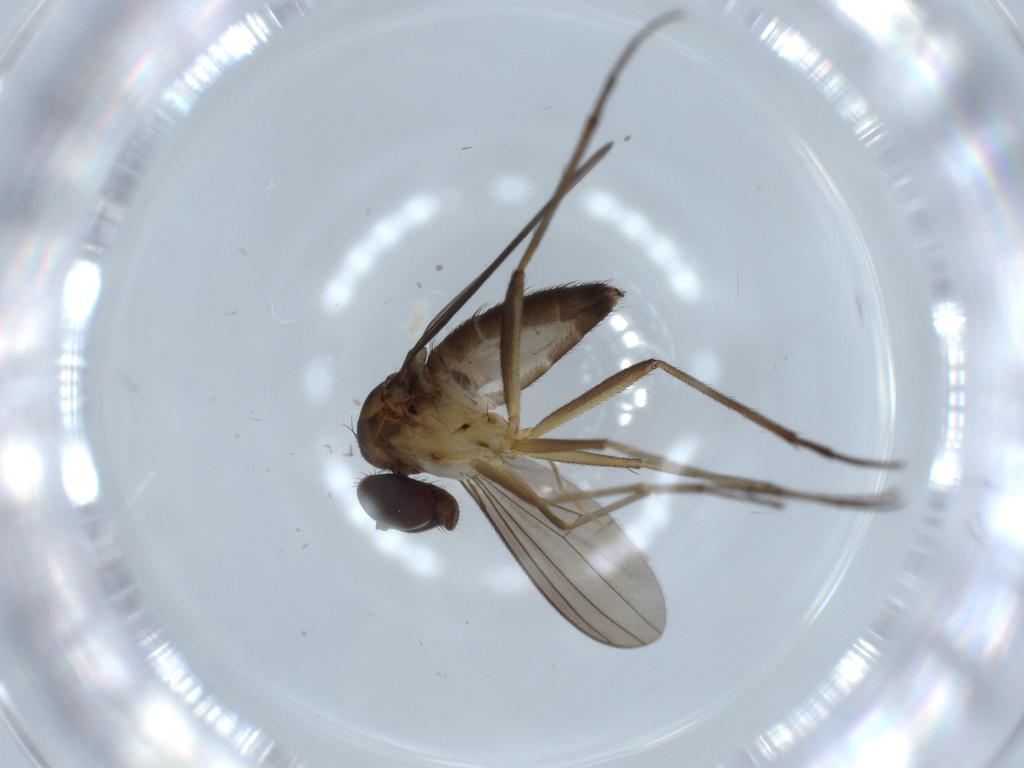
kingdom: Animalia
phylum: Arthropoda
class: Insecta
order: Diptera
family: Dolichopodidae
